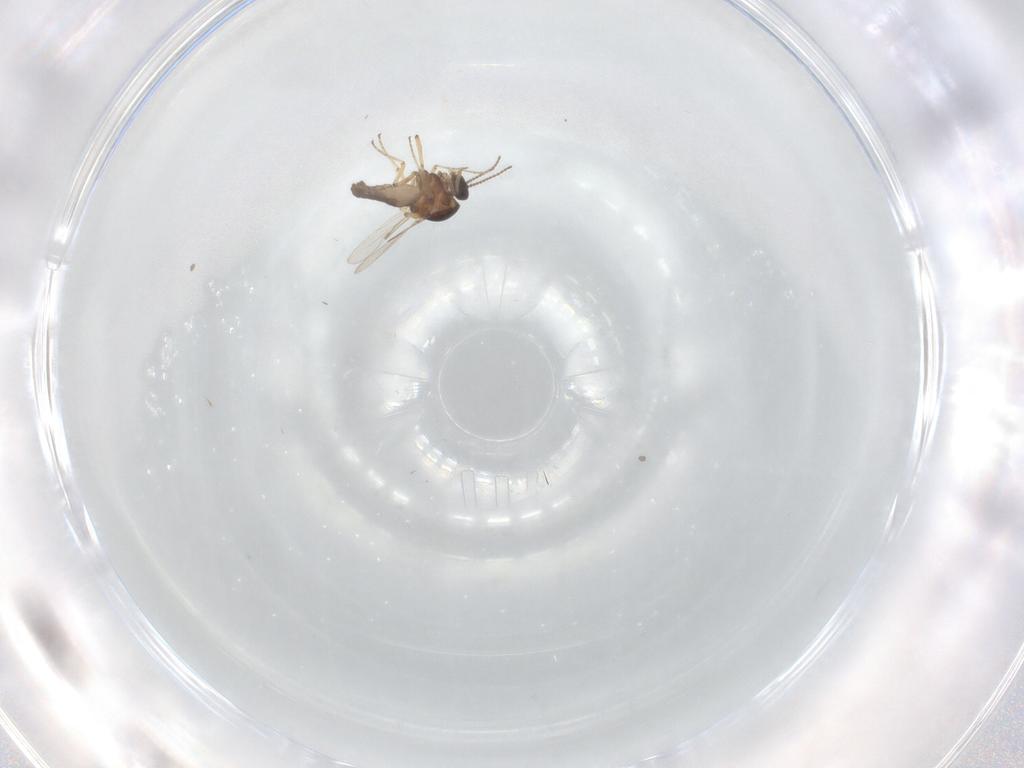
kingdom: Animalia
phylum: Arthropoda
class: Insecta
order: Diptera
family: Ceratopogonidae
